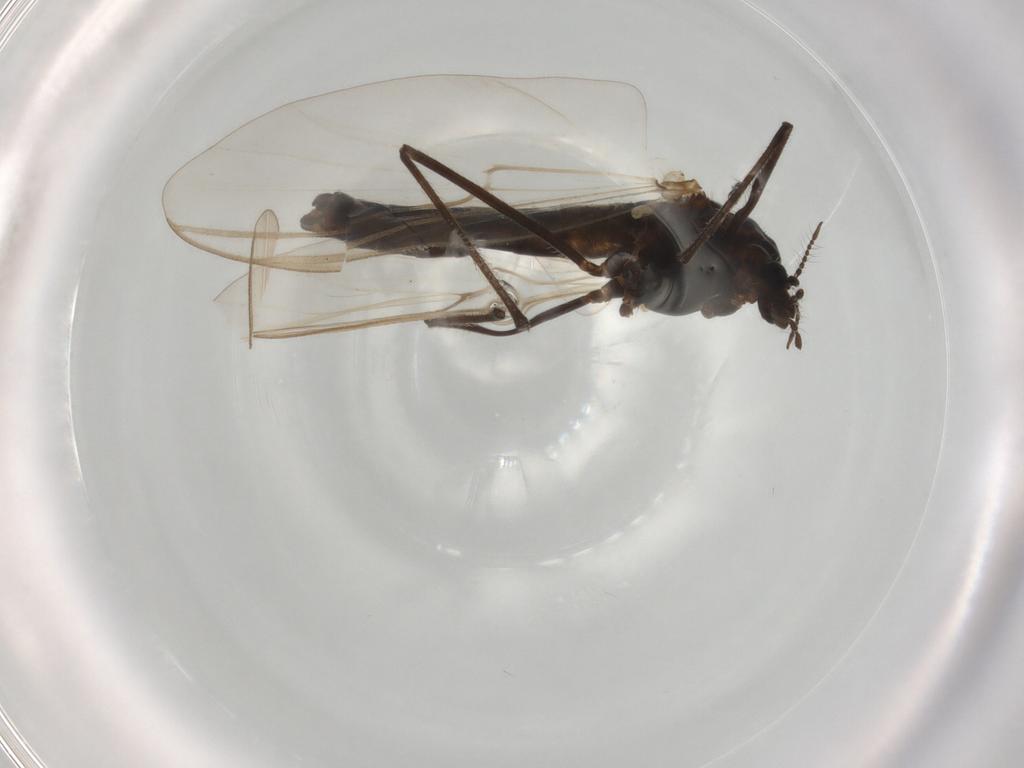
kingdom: Animalia
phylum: Arthropoda
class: Insecta
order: Diptera
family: Chironomidae
